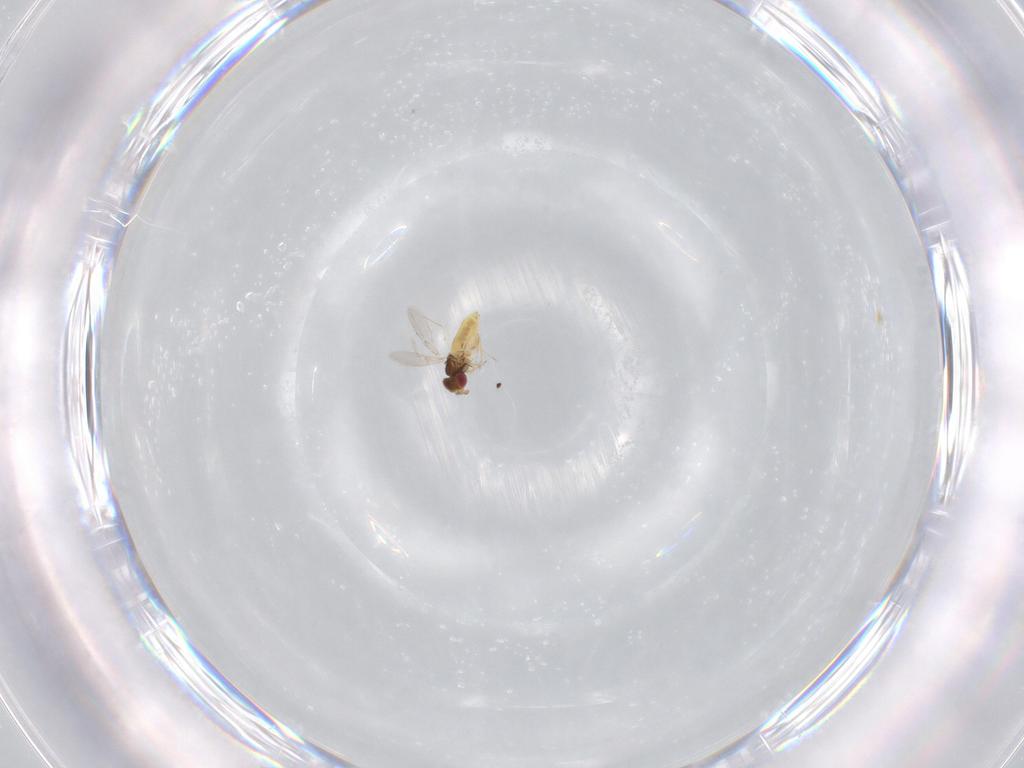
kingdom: Animalia
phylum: Arthropoda
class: Insecta
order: Hymenoptera
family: Trichogrammatidae
